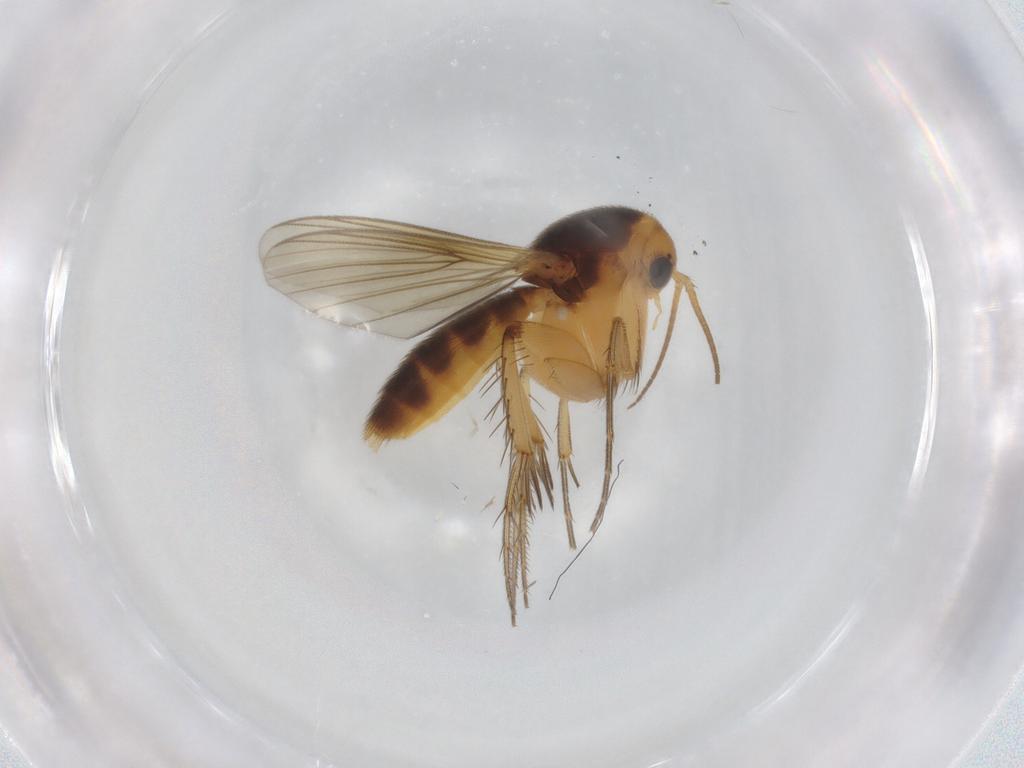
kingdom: Animalia
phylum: Arthropoda
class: Insecta
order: Diptera
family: Mycetophilidae
